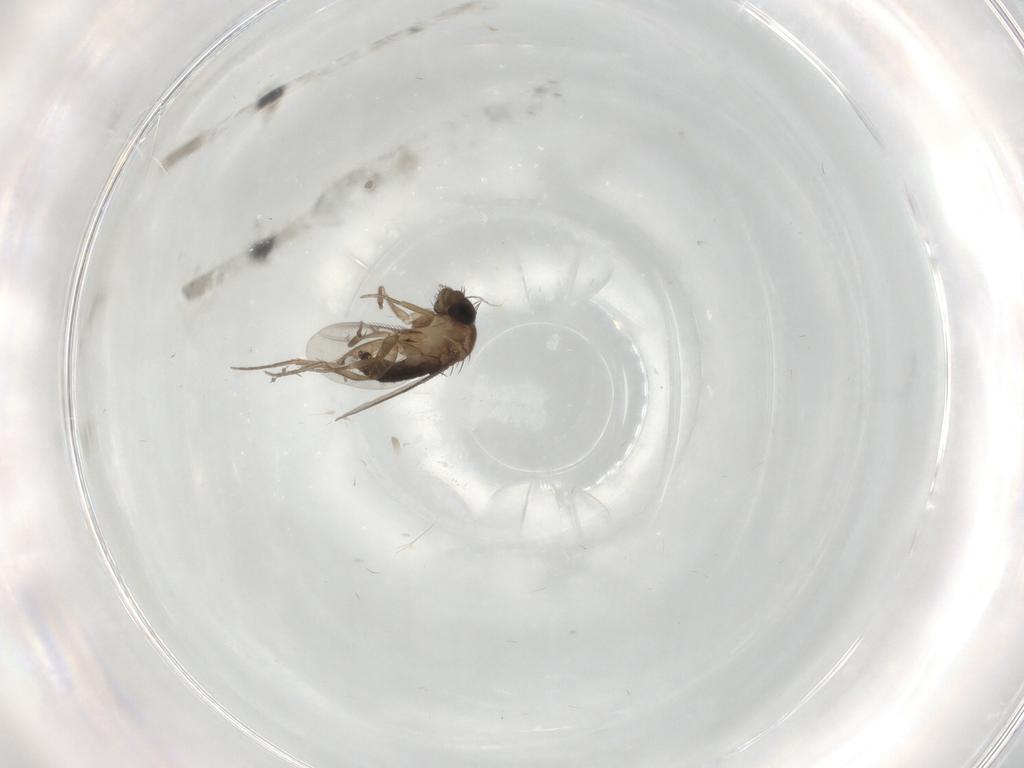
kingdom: Animalia
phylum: Arthropoda
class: Insecta
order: Diptera
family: Phoridae
